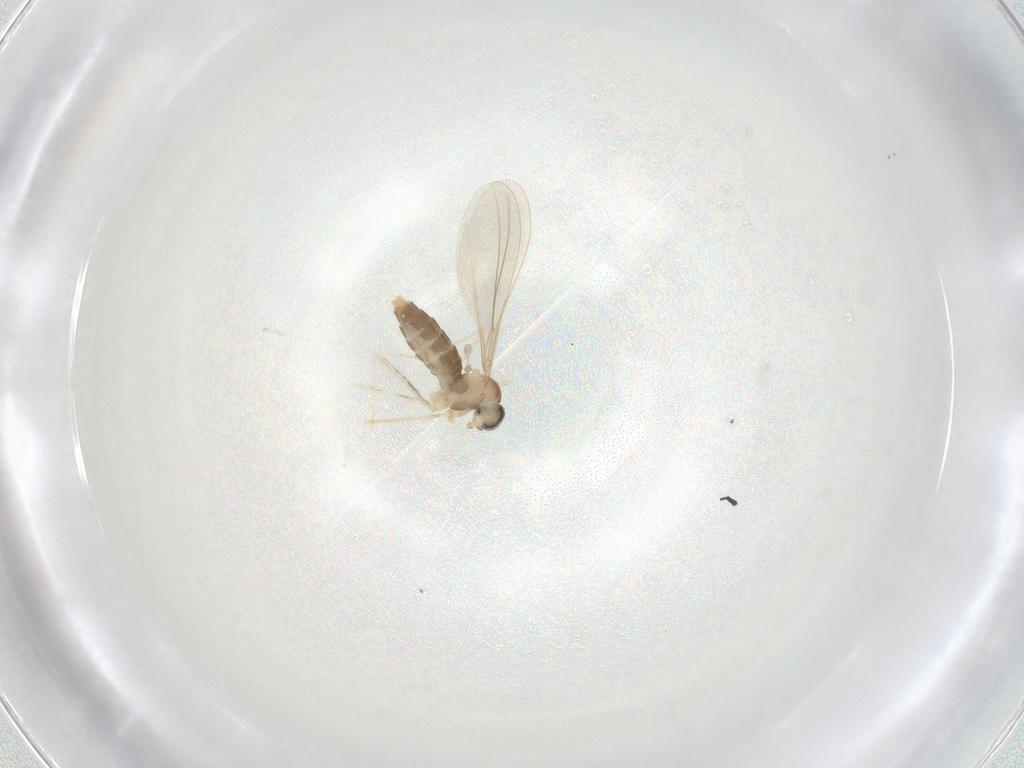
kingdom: Animalia
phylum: Arthropoda
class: Insecta
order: Diptera
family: Cecidomyiidae
